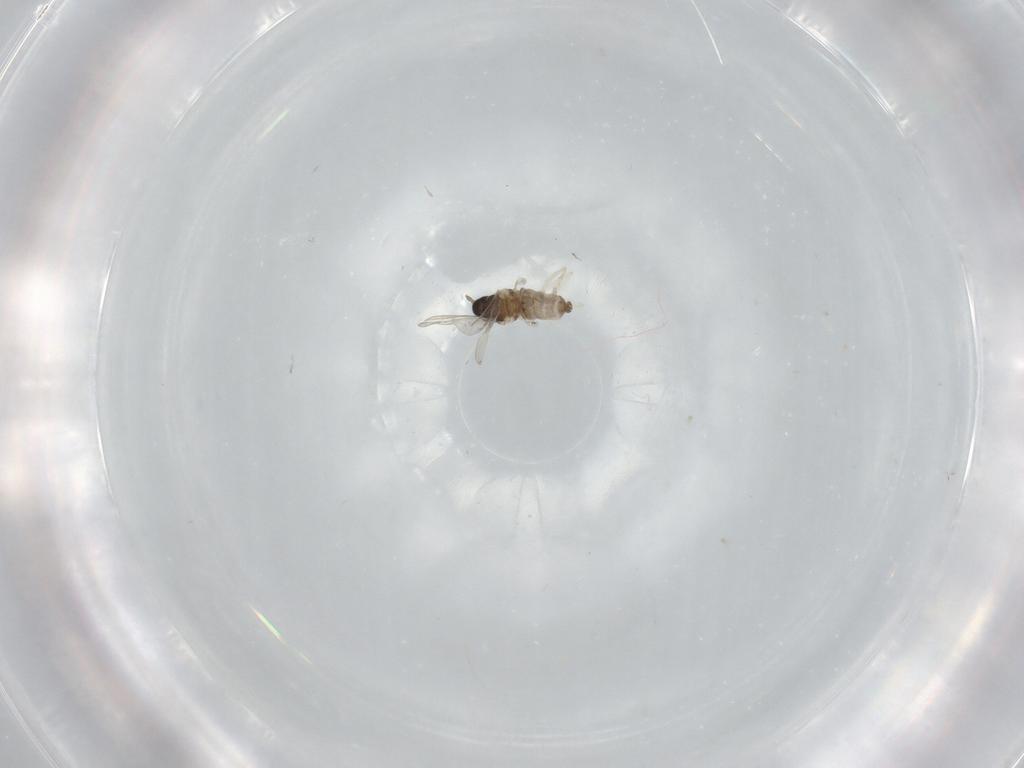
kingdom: Animalia
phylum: Arthropoda
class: Insecta
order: Diptera
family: Cecidomyiidae
